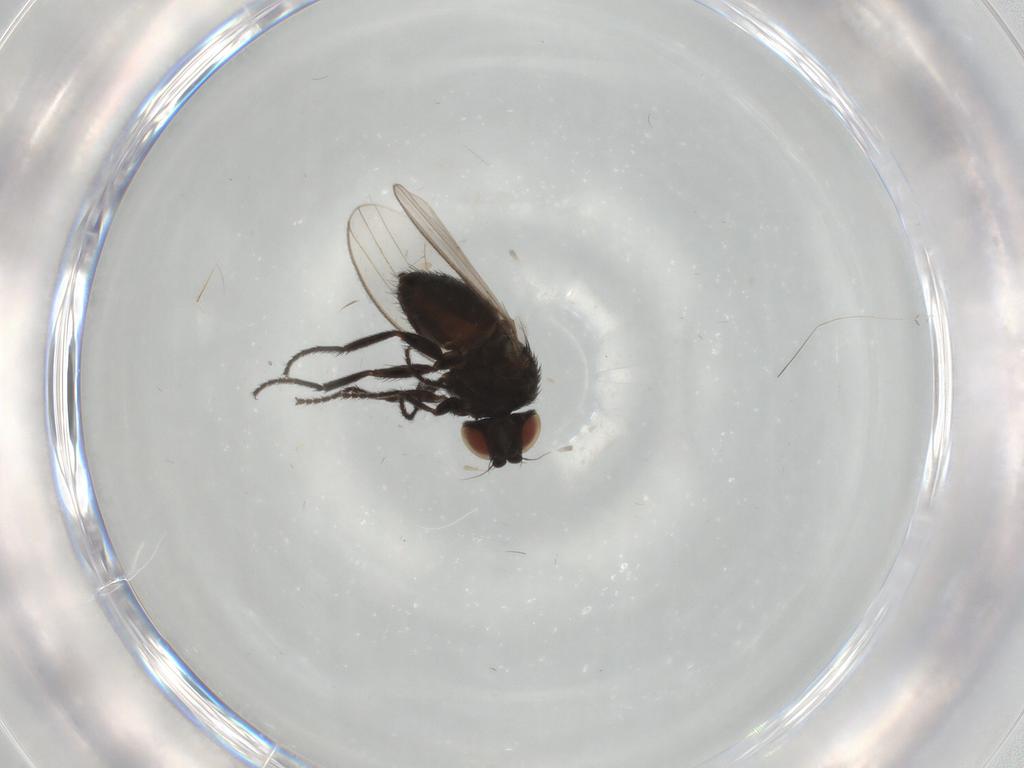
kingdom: Animalia
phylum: Arthropoda
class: Insecta
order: Diptera
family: Milichiidae
